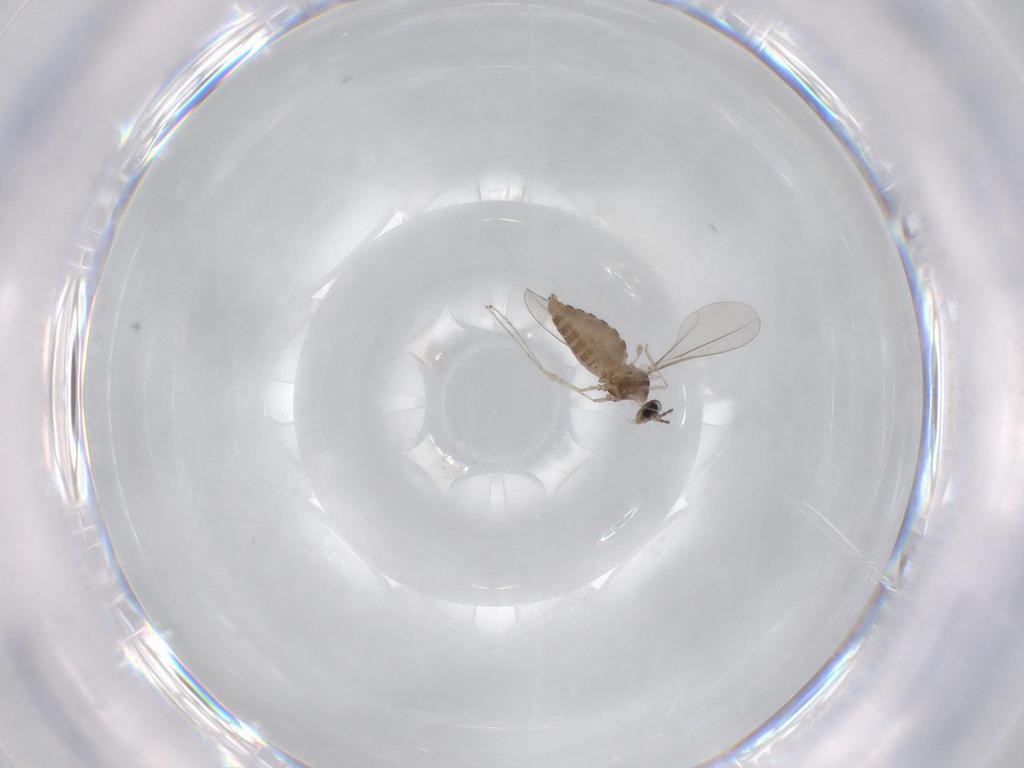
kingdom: Animalia
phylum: Arthropoda
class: Insecta
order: Diptera
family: Cecidomyiidae
